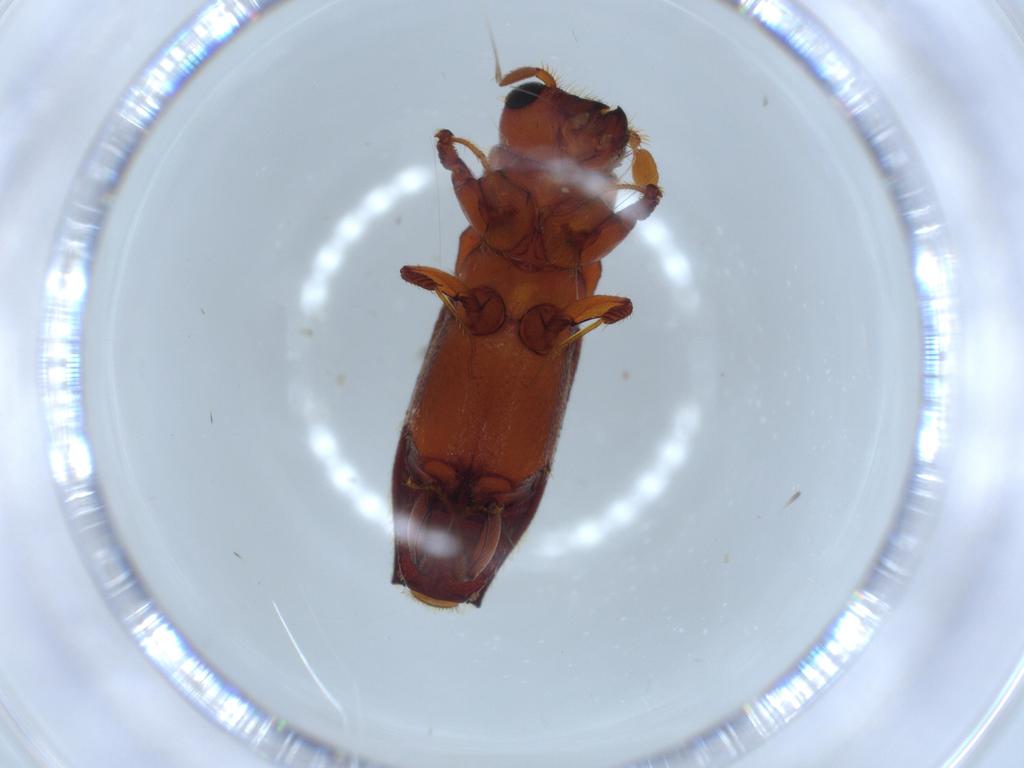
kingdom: Animalia
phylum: Arthropoda
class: Insecta
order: Coleoptera
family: Curculionidae
